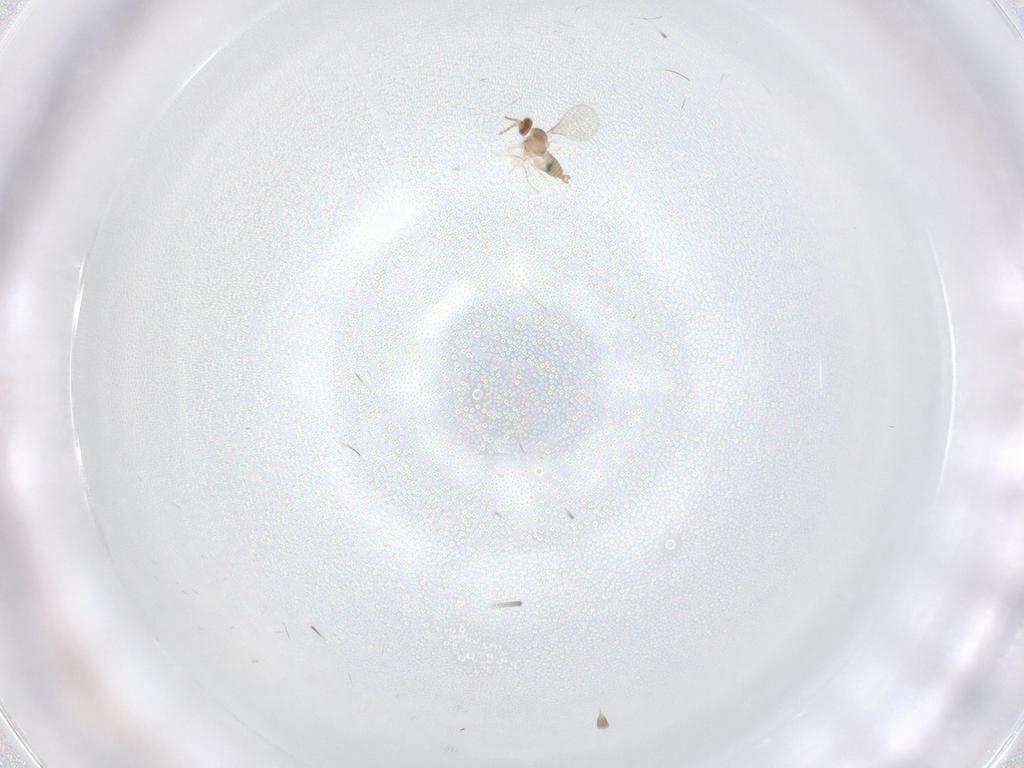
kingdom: Animalia
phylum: Arthropoda
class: Insecta
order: Diptera
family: Cecidomyiidae
